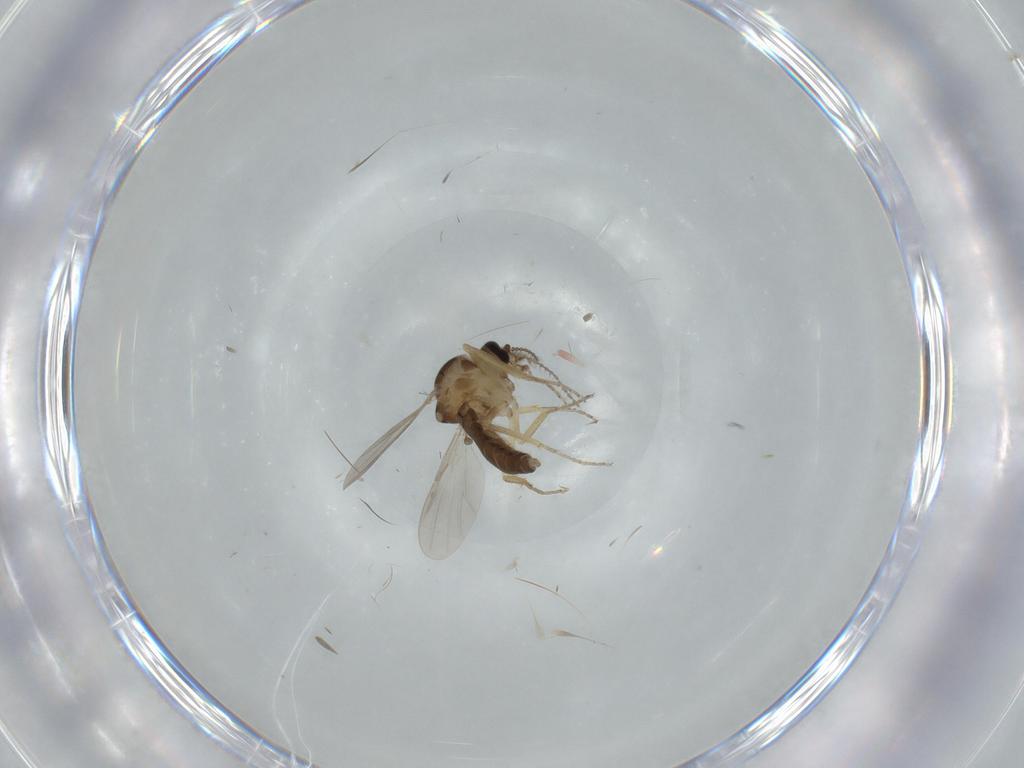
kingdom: Animalia
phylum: Arthropoda
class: Insecta
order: Diptera
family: Ceratopogonidae
